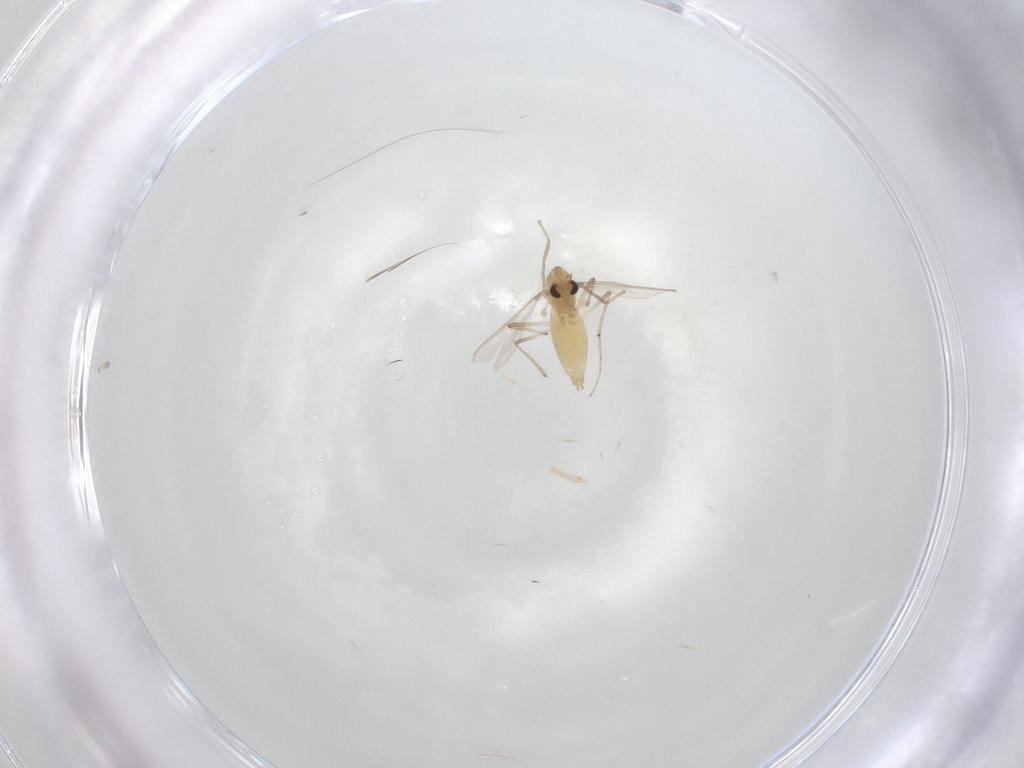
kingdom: Animalia
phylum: Arthropoda
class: Insecta
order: Diptera
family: Chironomidae
